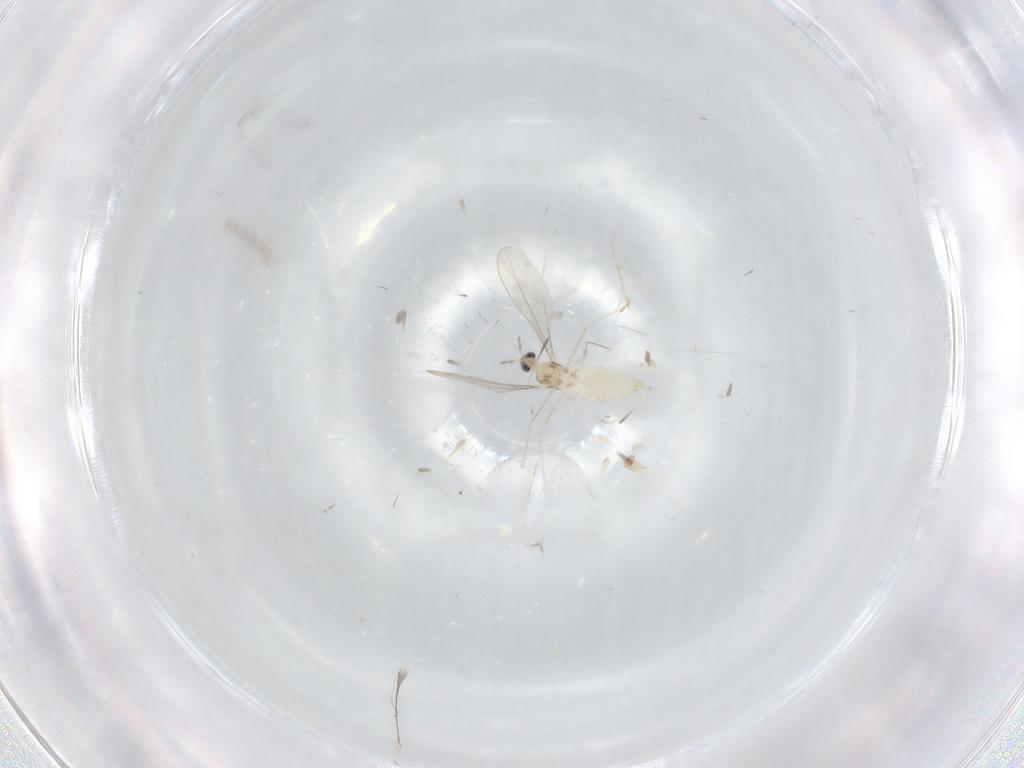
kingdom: Animalia
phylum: Arthropoda
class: Insecta
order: Diptera
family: Cecidomyiidae
